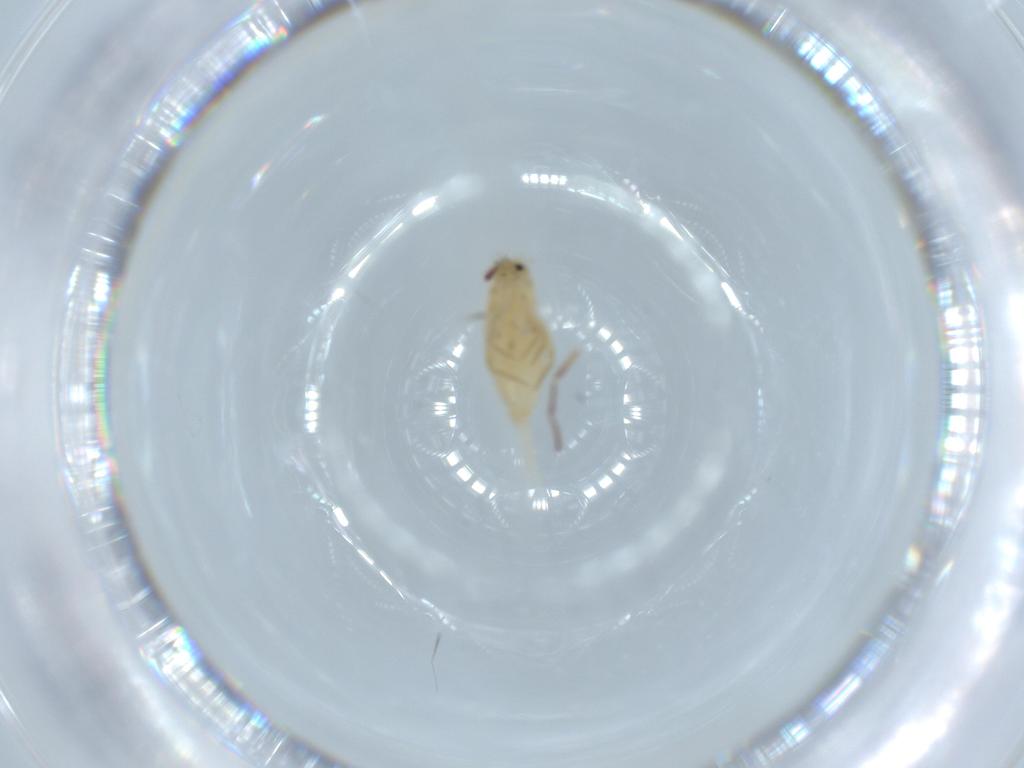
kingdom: Animalia
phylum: Arthropoda
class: Collembola
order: Entomobryomorpha
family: Entomobryidae
